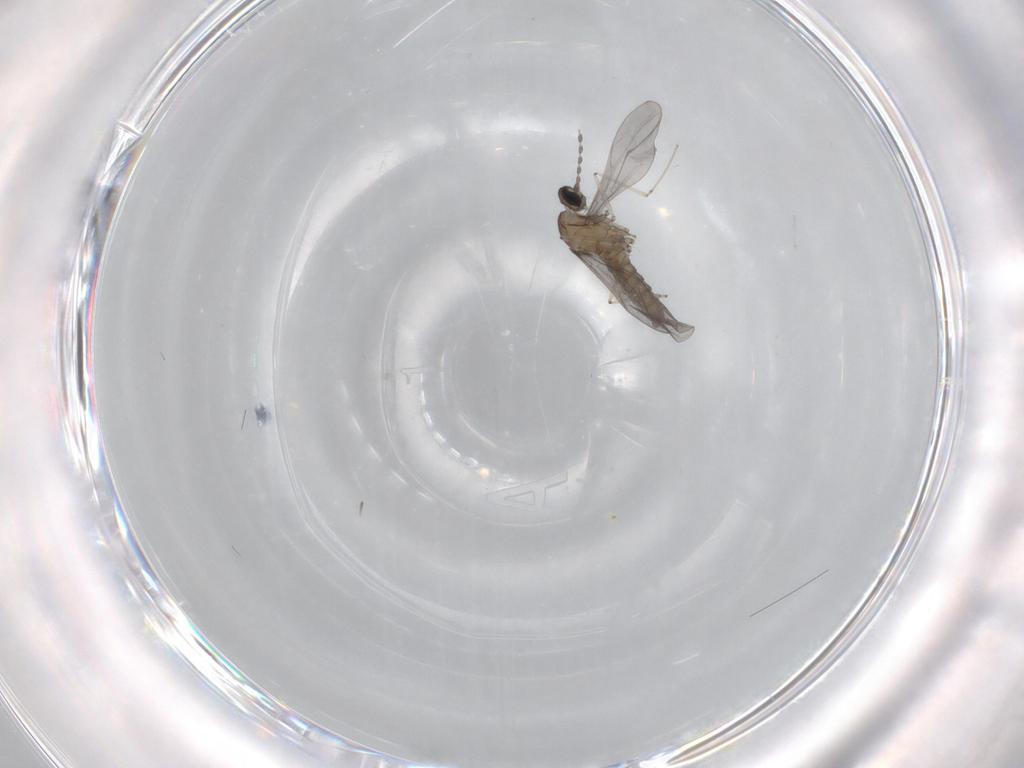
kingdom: Animalia
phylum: Arthropoda
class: Insecta
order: Diptera
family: Cecidomyiidae
